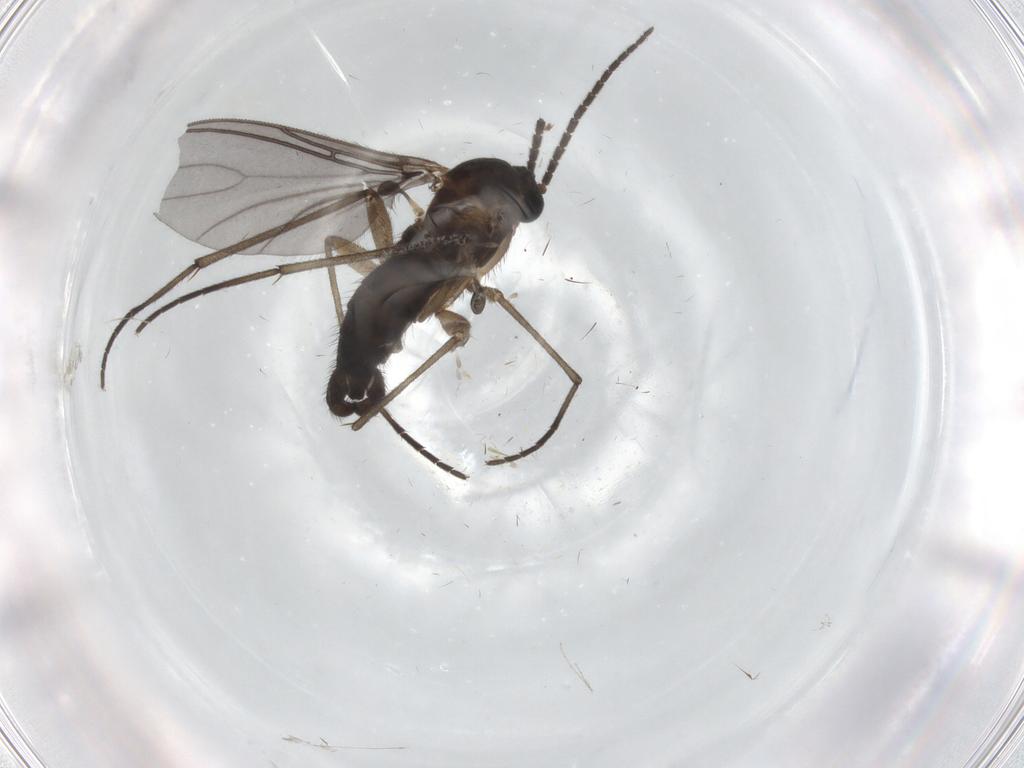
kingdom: Animalia
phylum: Arthropoda
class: Insecta
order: Diptera
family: Sciaridae
